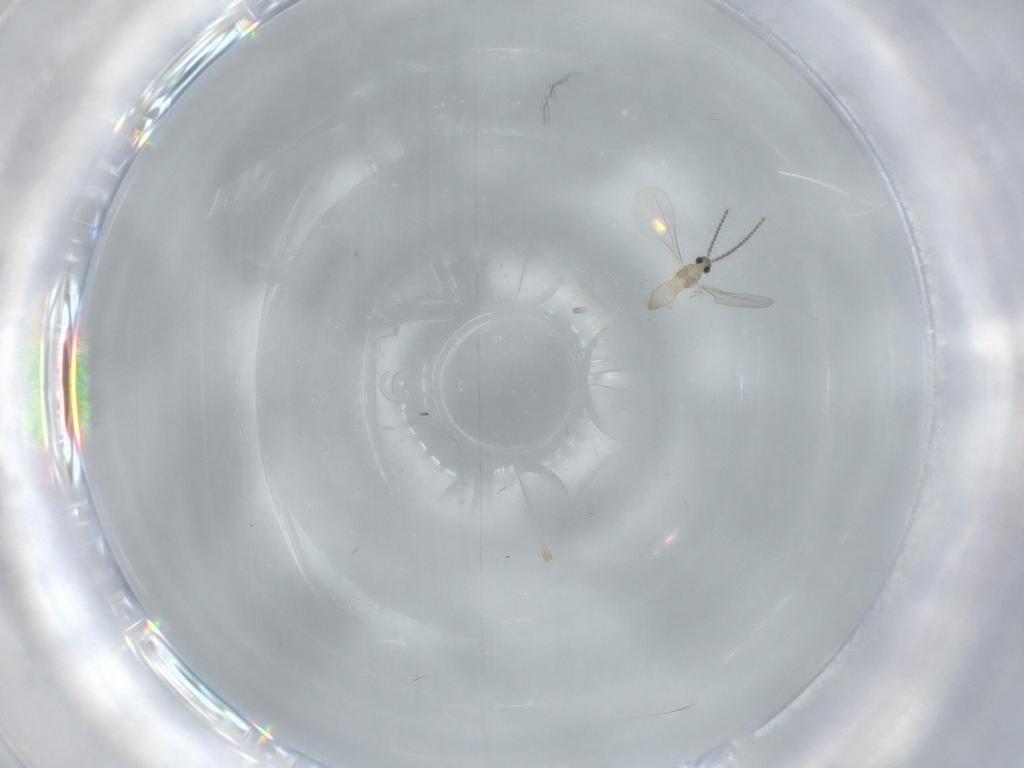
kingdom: Animalia
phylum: Arthropoda
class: Insecta
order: Diptera
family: Cecidomyiidae
